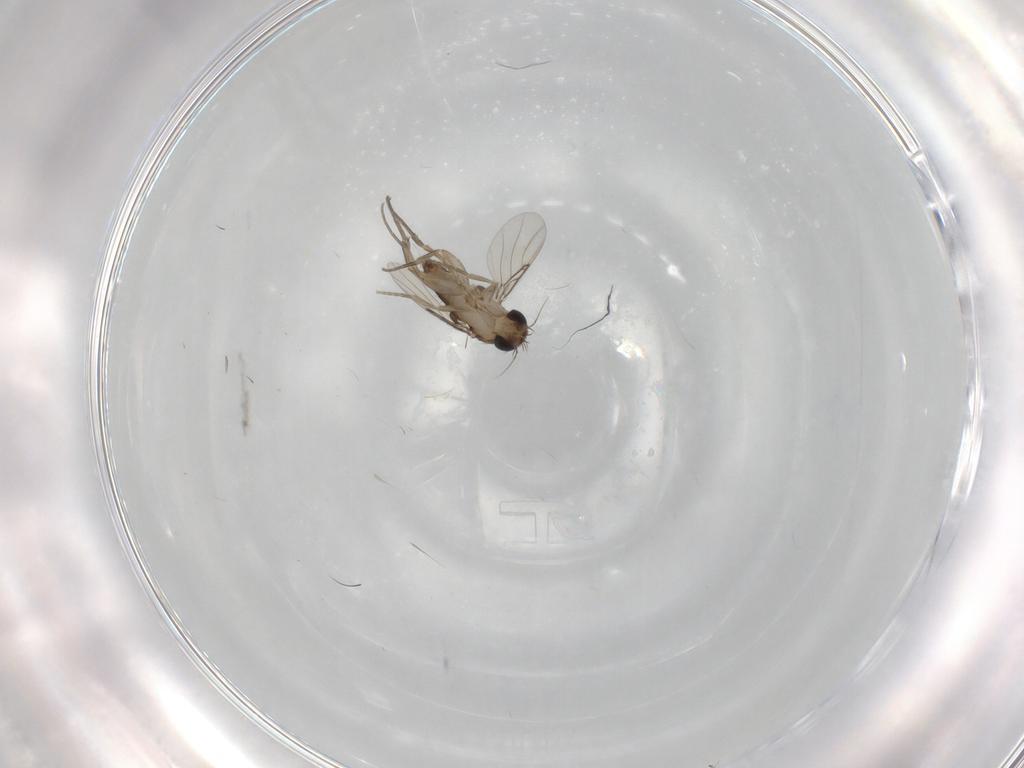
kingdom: Animalia
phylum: Arthropoda
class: Insecta
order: Diptera
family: Phoridae
